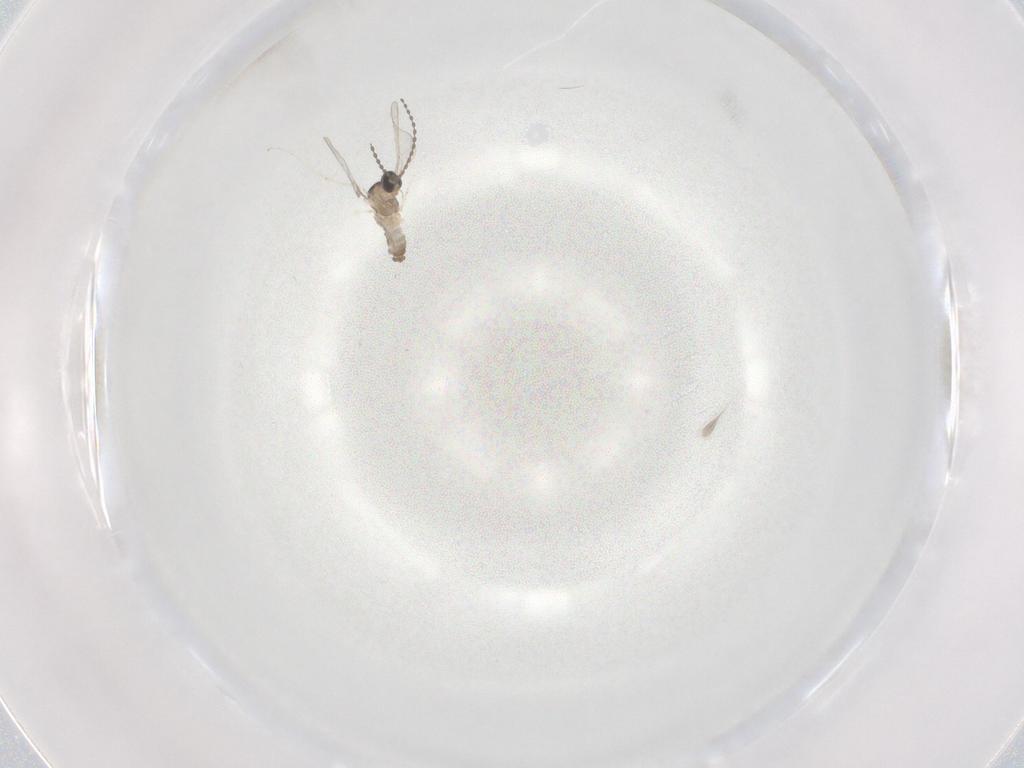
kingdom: Animalia
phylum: Arthropoda
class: Insecta
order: Diptera
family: Cecidomyiidae
